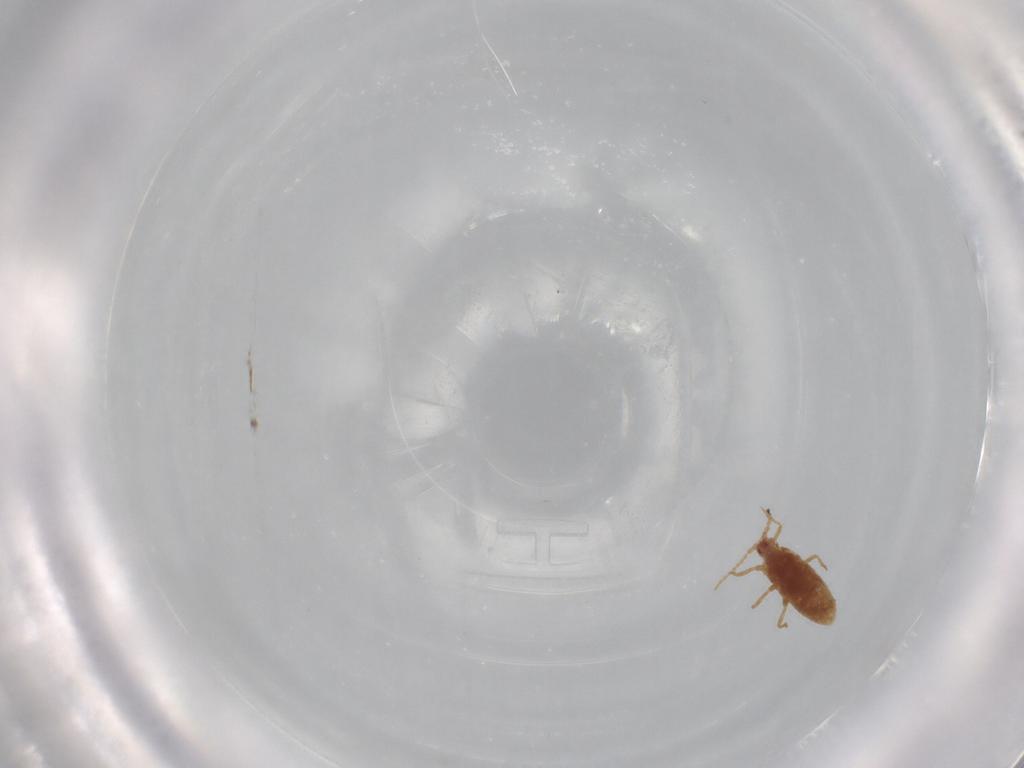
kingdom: Animalia
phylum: Arthropoda
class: Insecta
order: Hemiptera
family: Pseudococcidae
